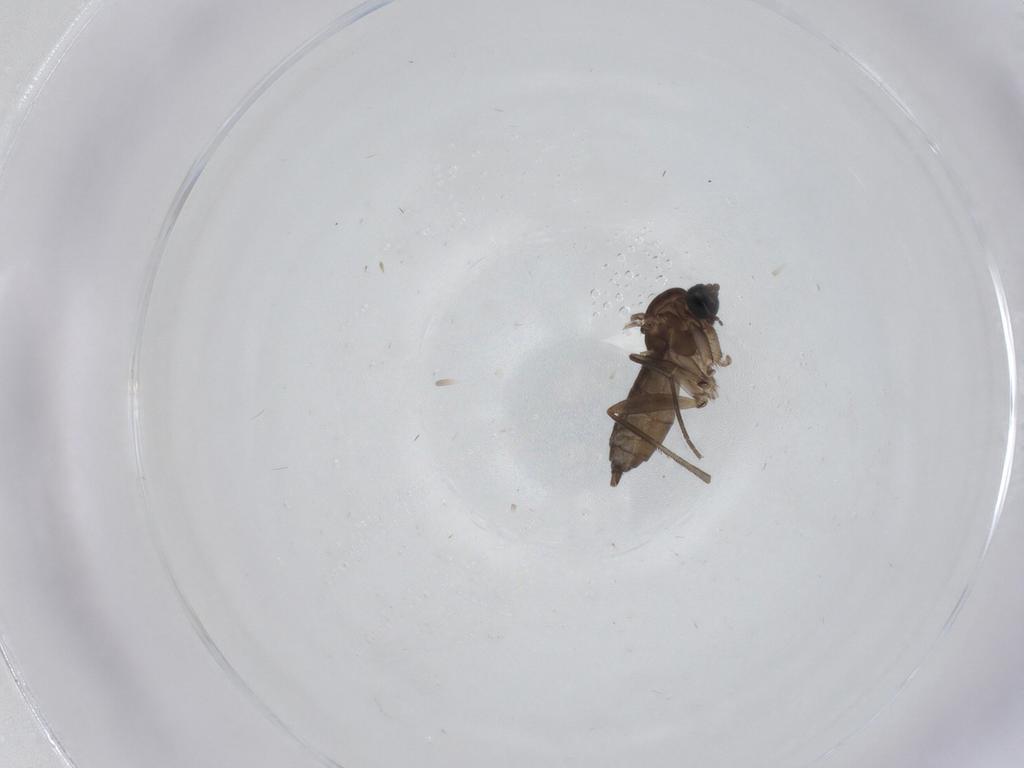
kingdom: Animalia
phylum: Arthropoda
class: Insecta
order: Diptera
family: Sciaridae
